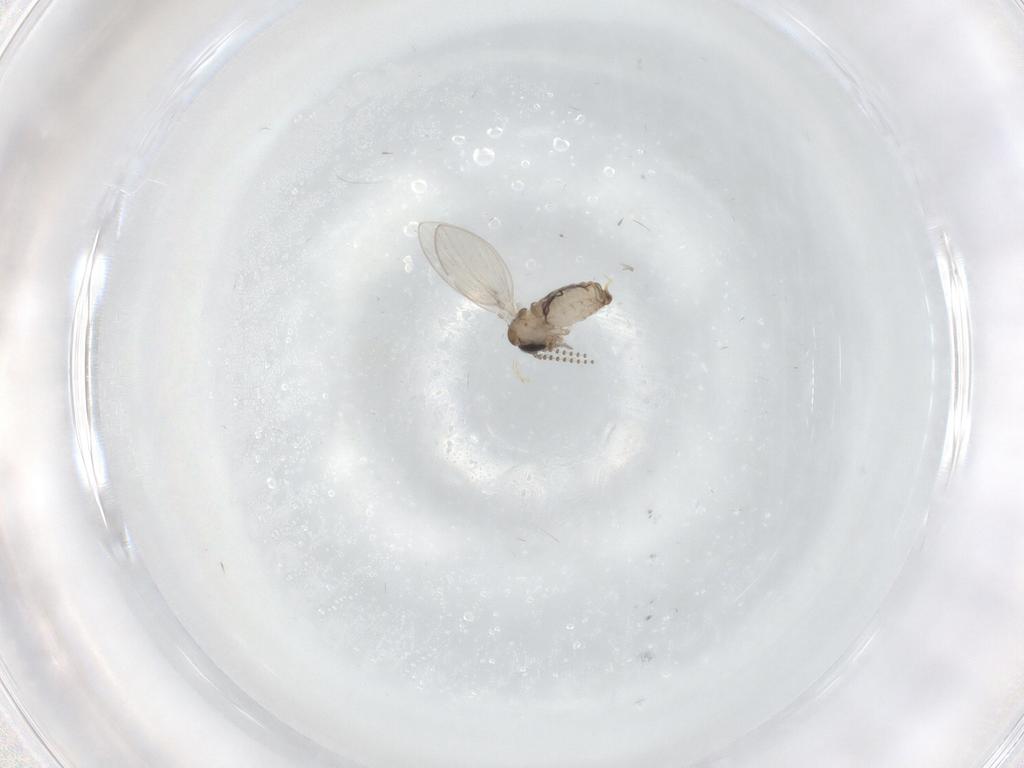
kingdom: Animalia
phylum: Arthropoda
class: Insecta
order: Diptera
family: Psychodidae
